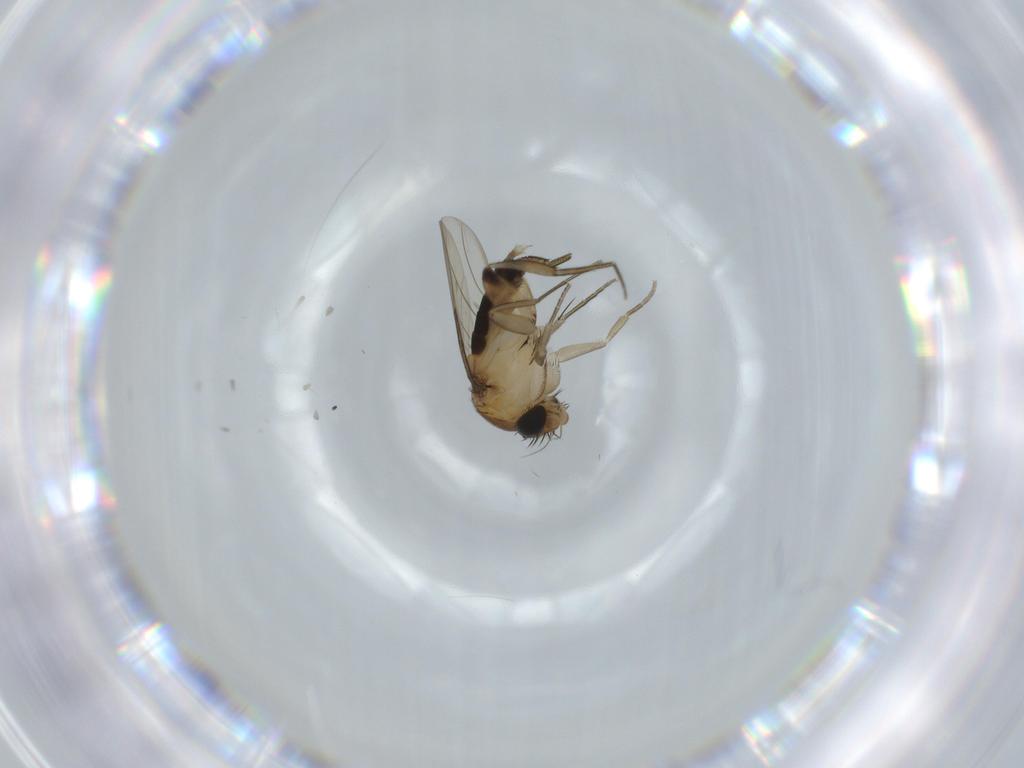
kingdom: Animalia
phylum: Arthropoda
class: Insecta
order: Diptera
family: Phoridae
